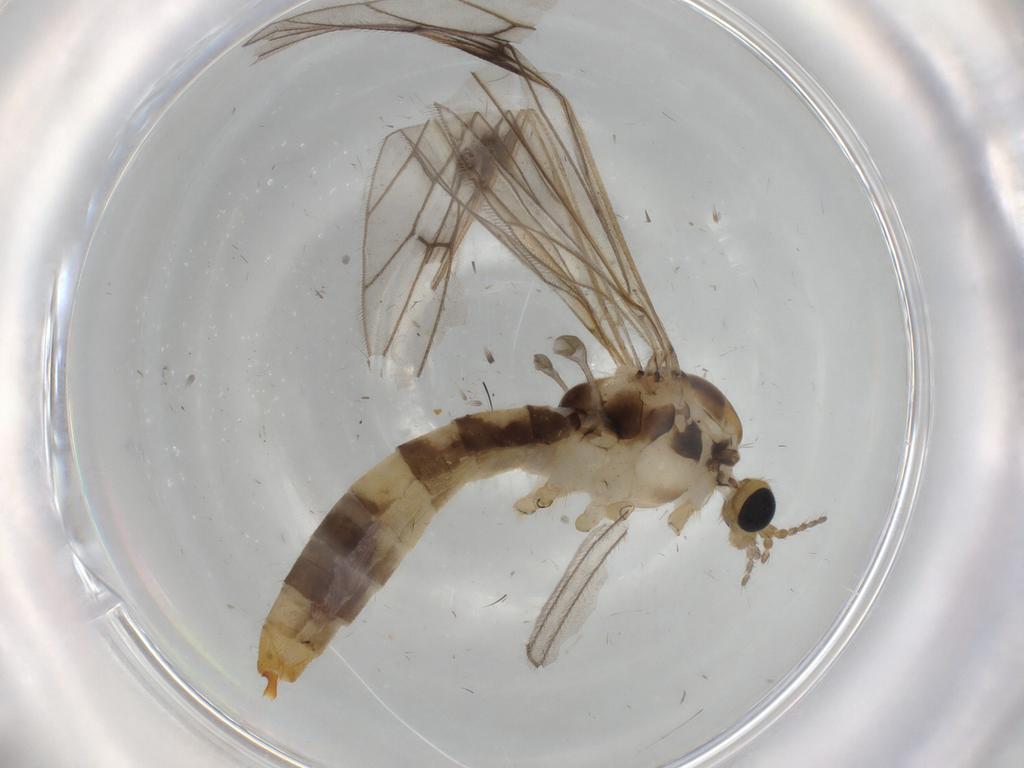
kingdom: Animalia
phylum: Arthropoda
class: Insecta
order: Diptera
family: Limoniidae
